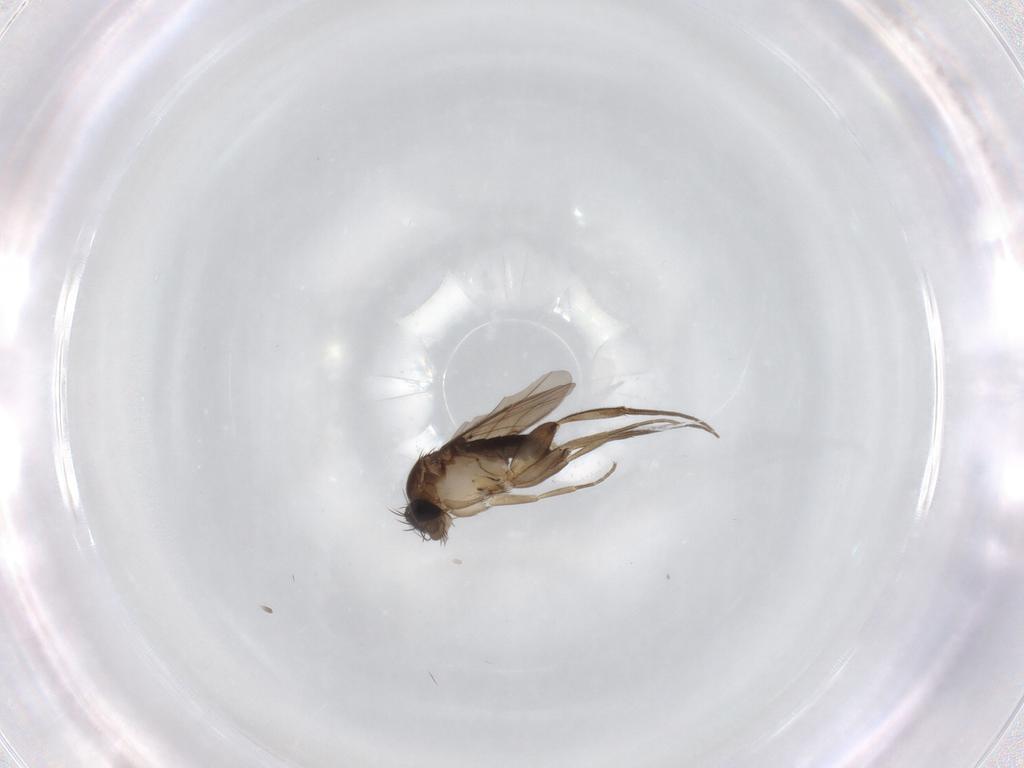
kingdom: Animalia
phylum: Arthropoda
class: Insecta
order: Diptera
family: Phoridae
